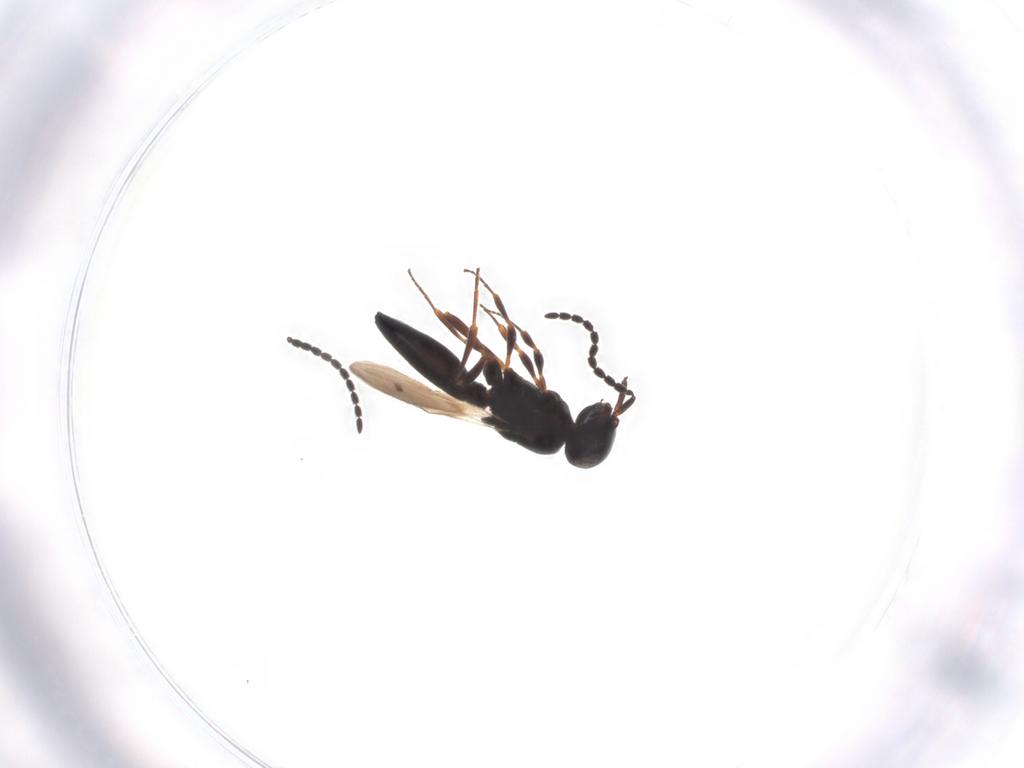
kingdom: Animalia
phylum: Arthropoda
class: Insecta
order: Hymenoptera
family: Scelionidae
